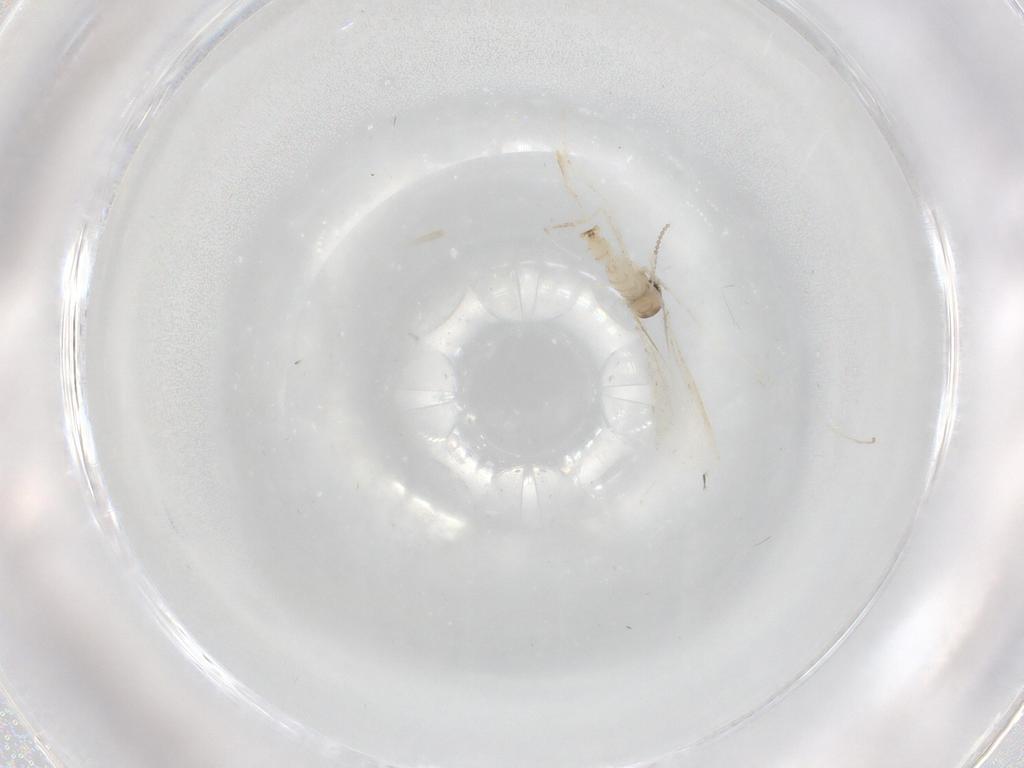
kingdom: Animalia
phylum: Arthropoda
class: Insecta
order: Diptera
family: Cecidomyiidae
